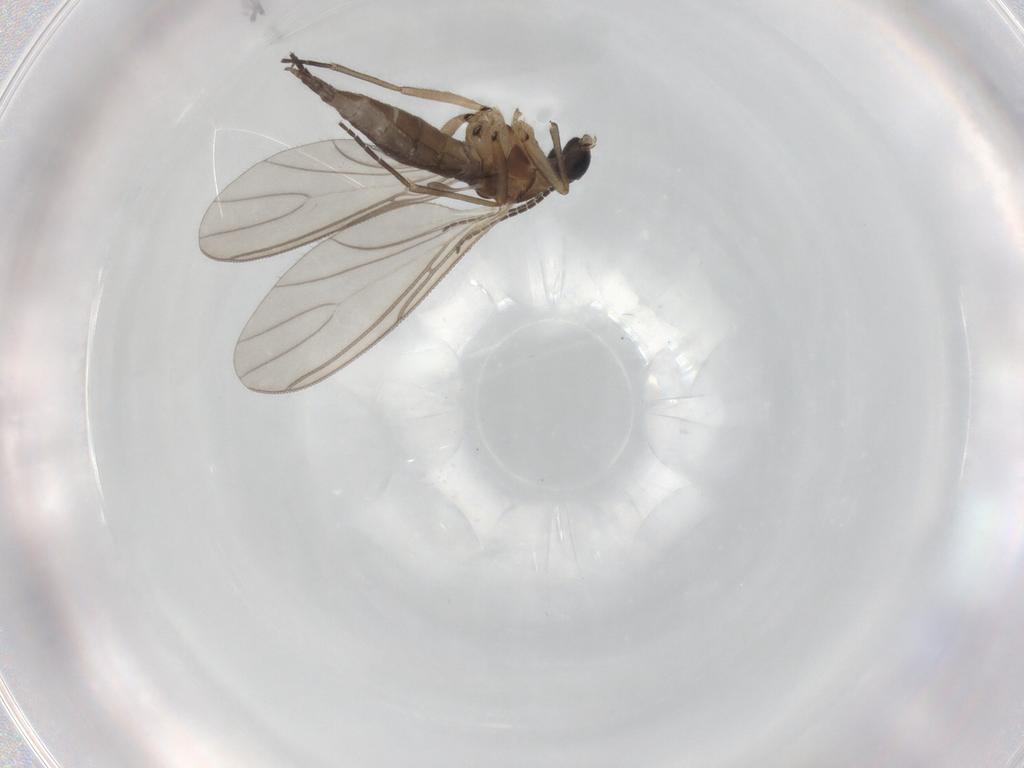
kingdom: Animalia
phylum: Arthropoda
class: Insecta
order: Diptera
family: Sciaridae
